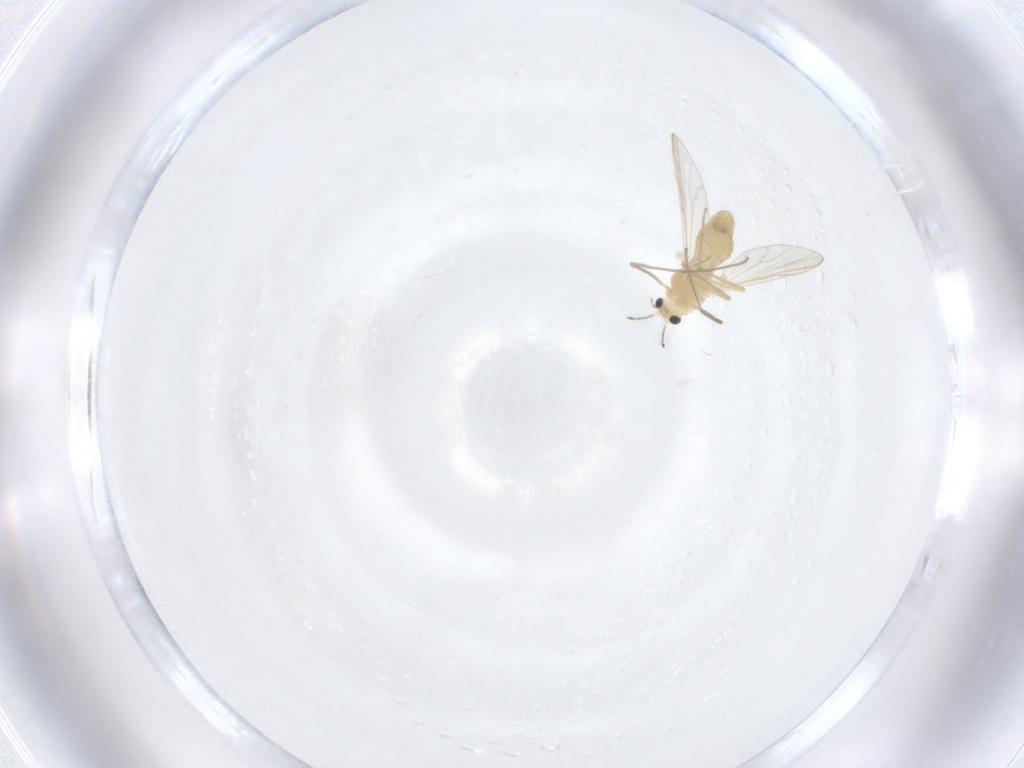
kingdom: Animalia
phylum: Arthropoda
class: Insecta
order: Diptera
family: Chironomidae
